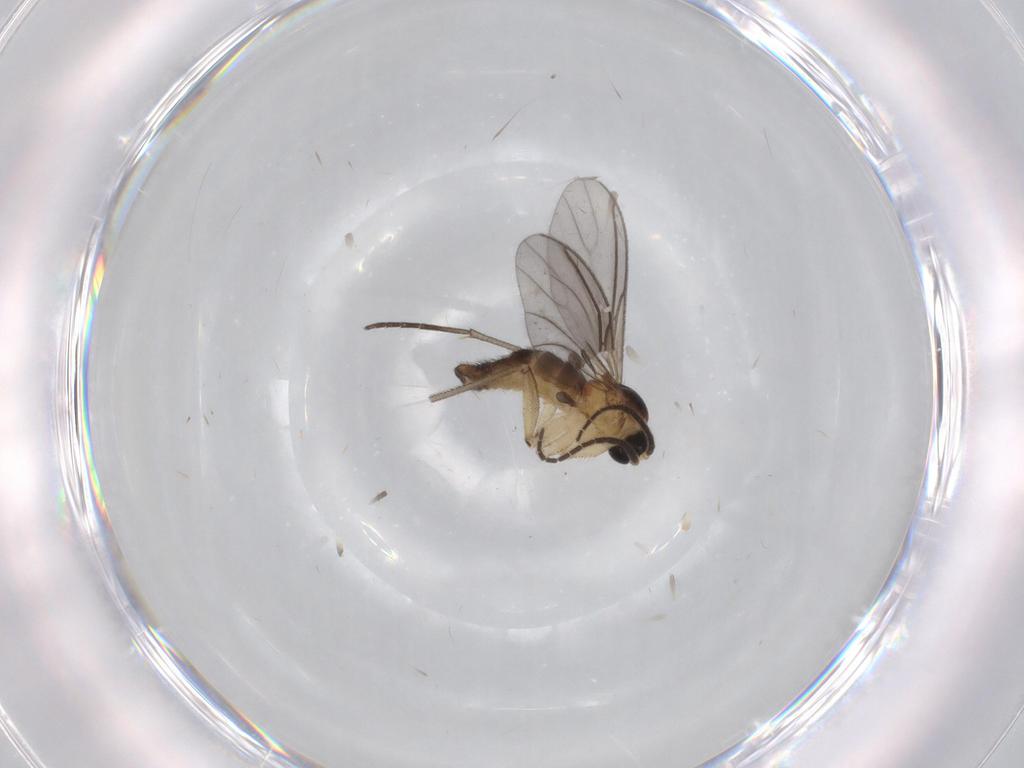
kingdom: Animalia
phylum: Arthropoda
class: Insecta
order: Diptera
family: Sciaridae
